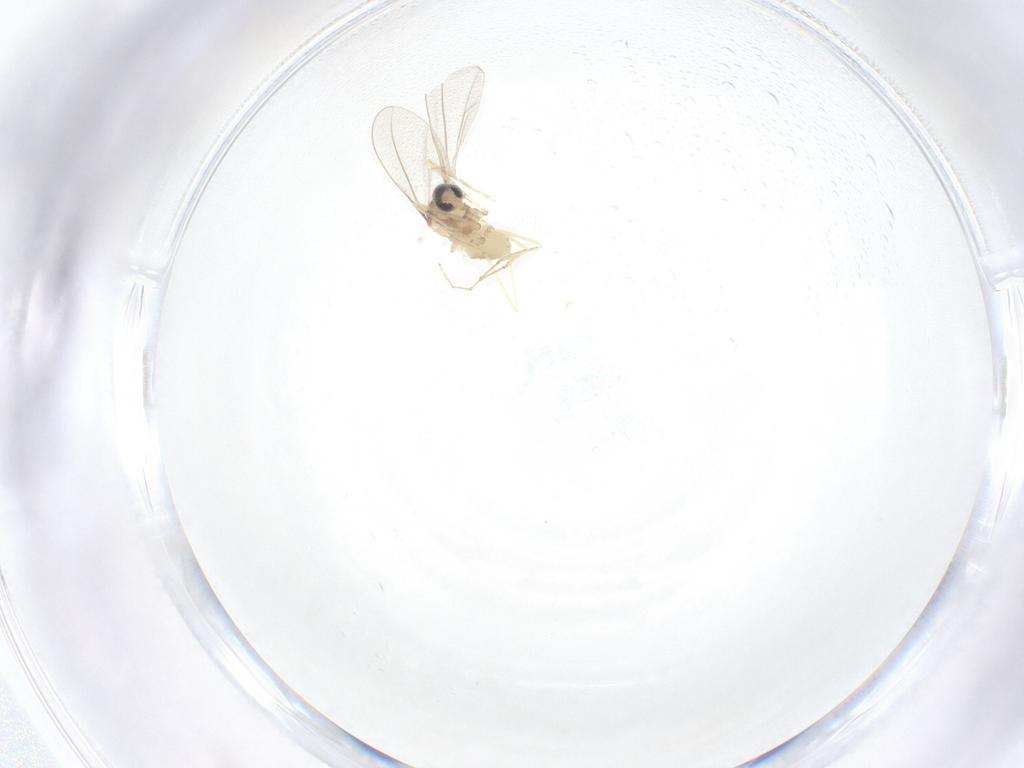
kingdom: Animalia
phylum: Arthropoda
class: Insecta
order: Diptera
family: Cecidomyiidae
